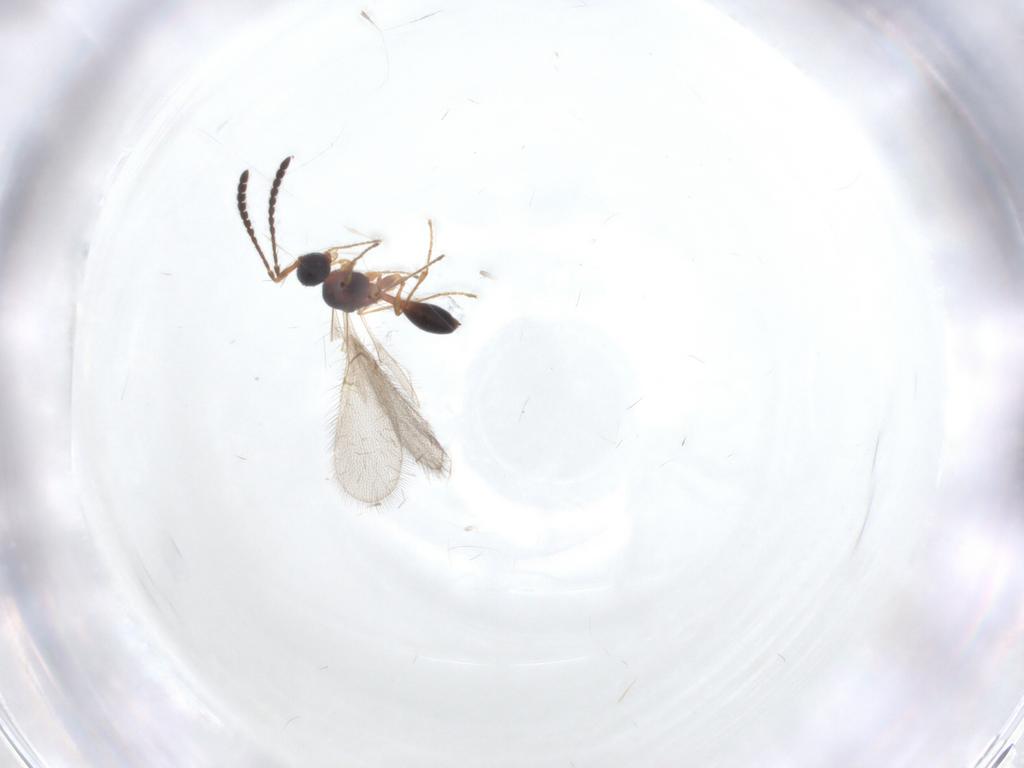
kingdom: Animalia
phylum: Arthropoda
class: Insecta
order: Hymenoptera
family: Diapriidae
